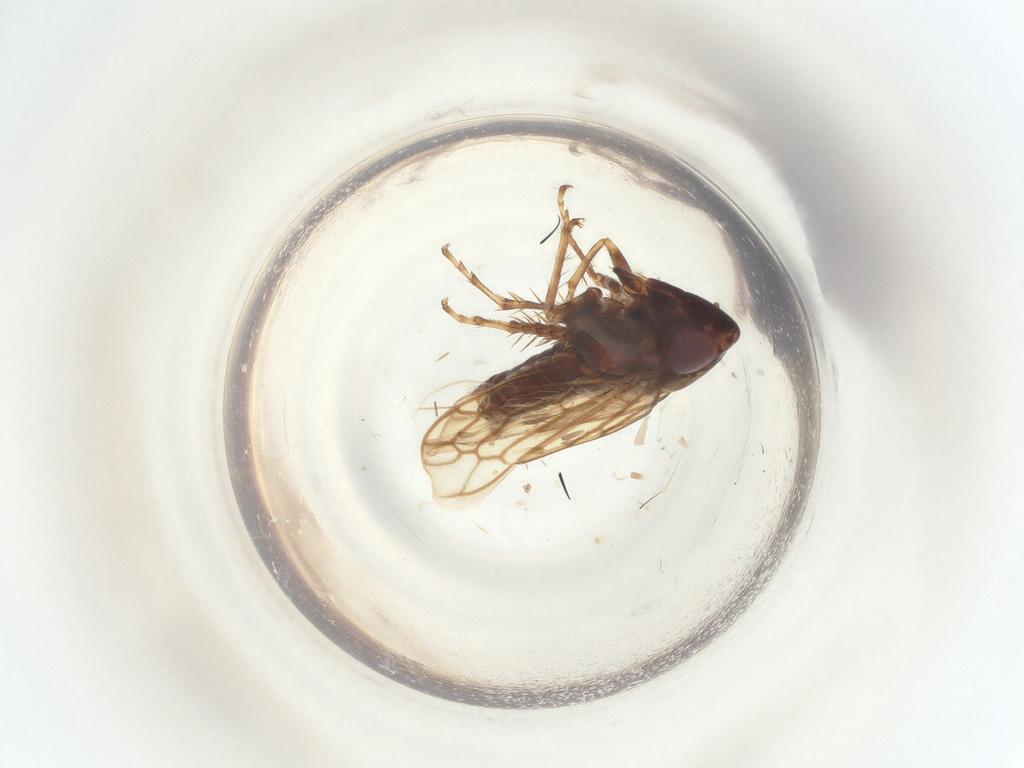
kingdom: Animalia
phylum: Arthropoda
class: Insecta
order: Hemiptera
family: Cicadellidae
